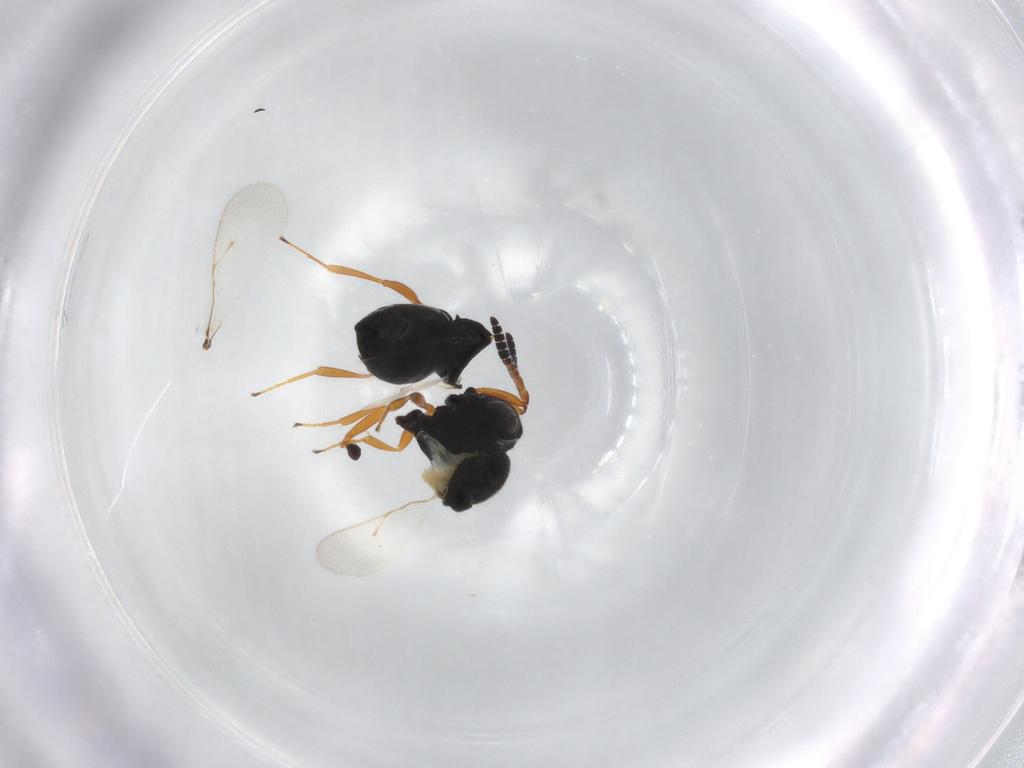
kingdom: Animalia
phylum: Arthropoda
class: Insecta
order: Hymenoptera
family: Scelionidae
